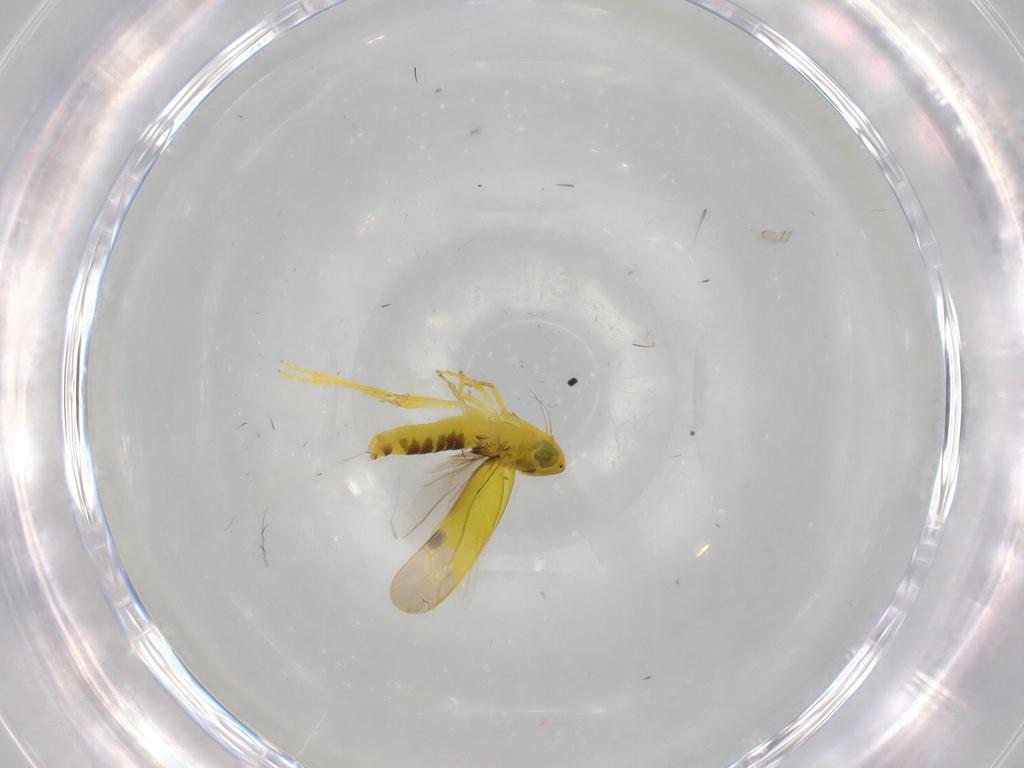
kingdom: Animalia
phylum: Arthropoda
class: Insecta
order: Hemiptera
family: Cicadellidae
